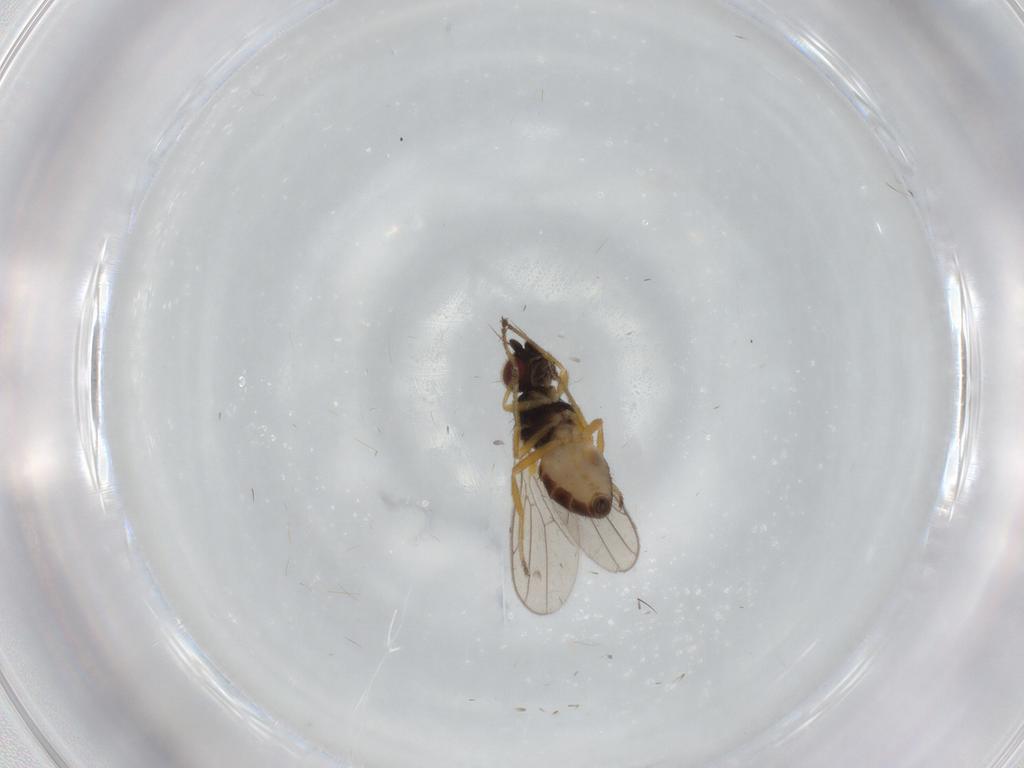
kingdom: Animalia
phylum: Arthropoda
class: Insecta
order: Diptera
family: Chloropidae
